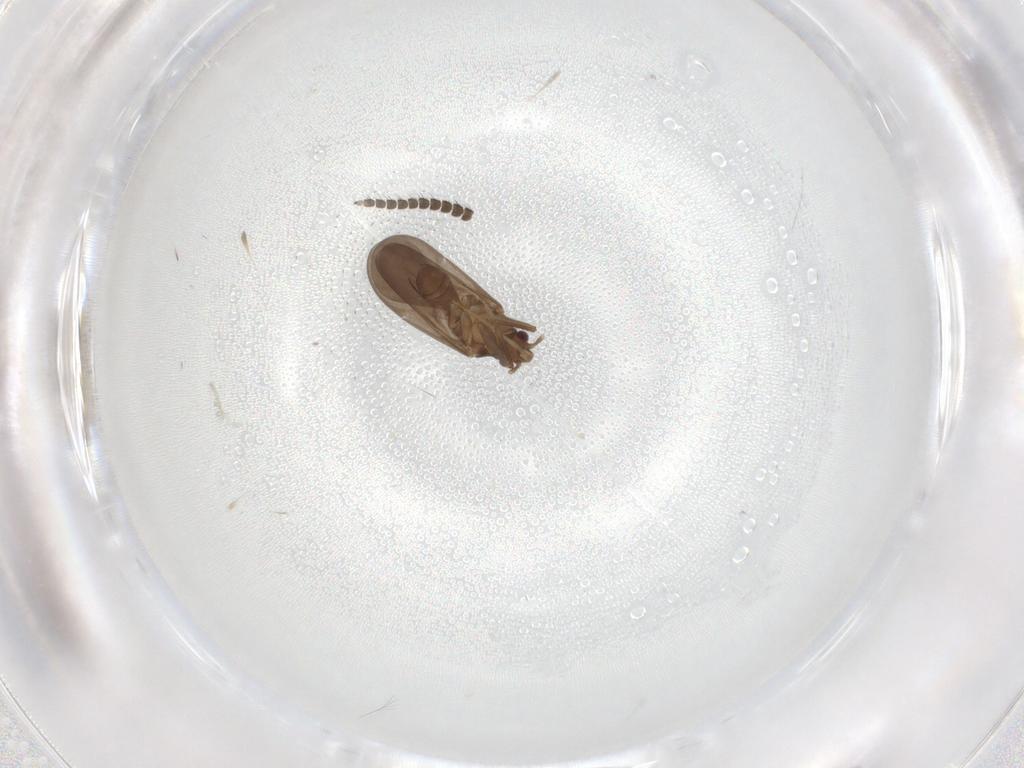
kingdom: Animalia
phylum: Arthropoda
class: Insecta
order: Hemiptera
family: Ceratocombidae
